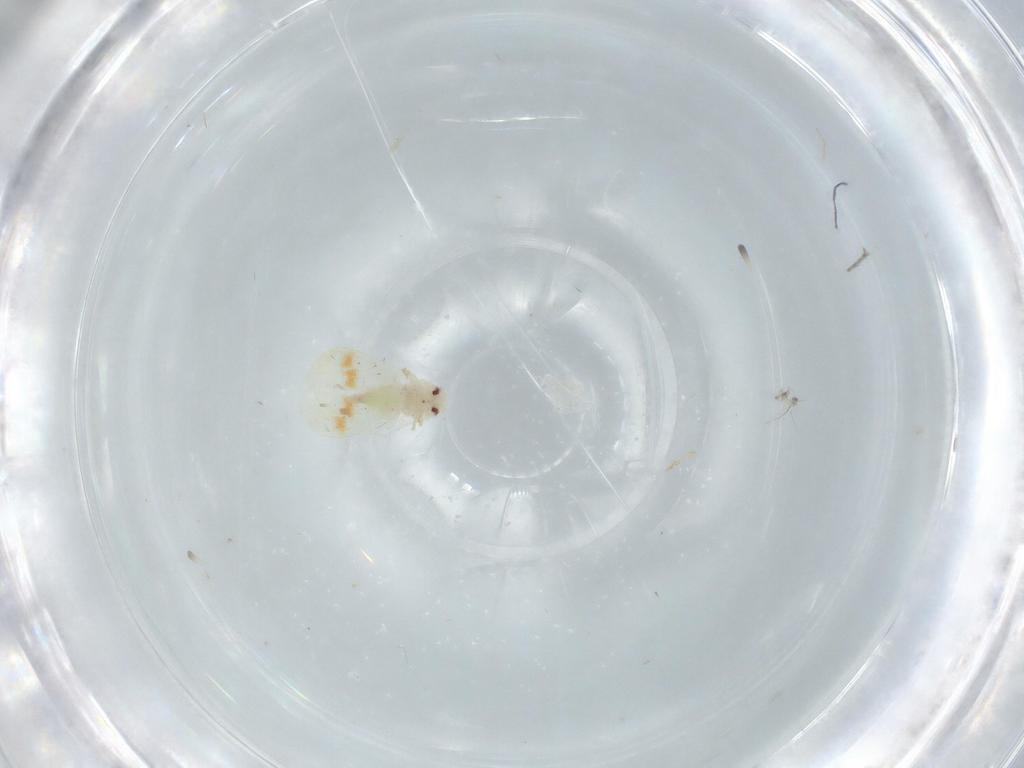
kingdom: Animalia
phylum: Arthropoda
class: Insecta
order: Hemiptera
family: Aleyrodidae
